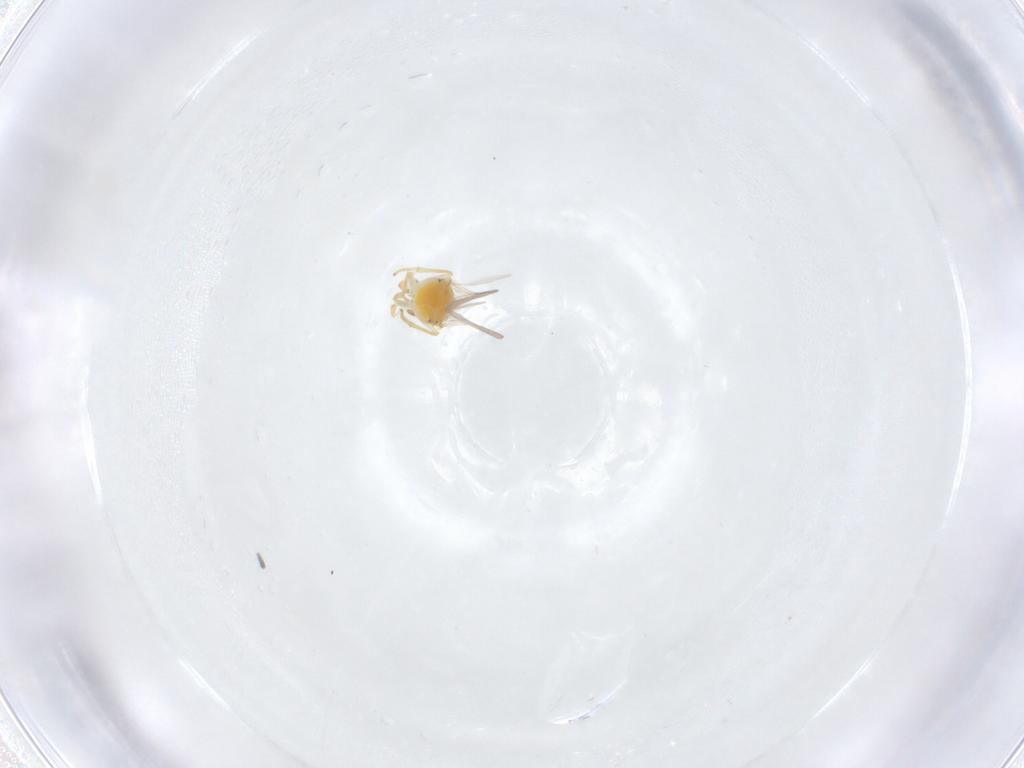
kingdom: Animalia
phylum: Arthropoda
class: Insecta
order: Hymenoptera
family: Encyrtidae
